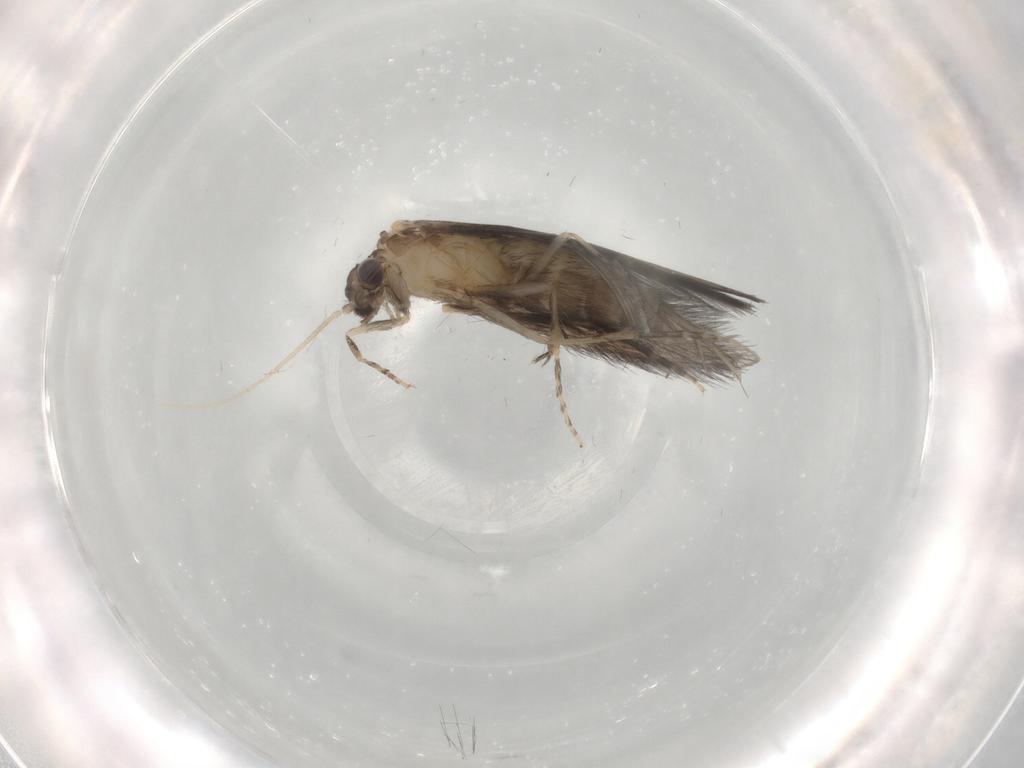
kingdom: Animalia
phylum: Arthropoda
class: Insecta
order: Trichoptera
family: Hydroptilidae
